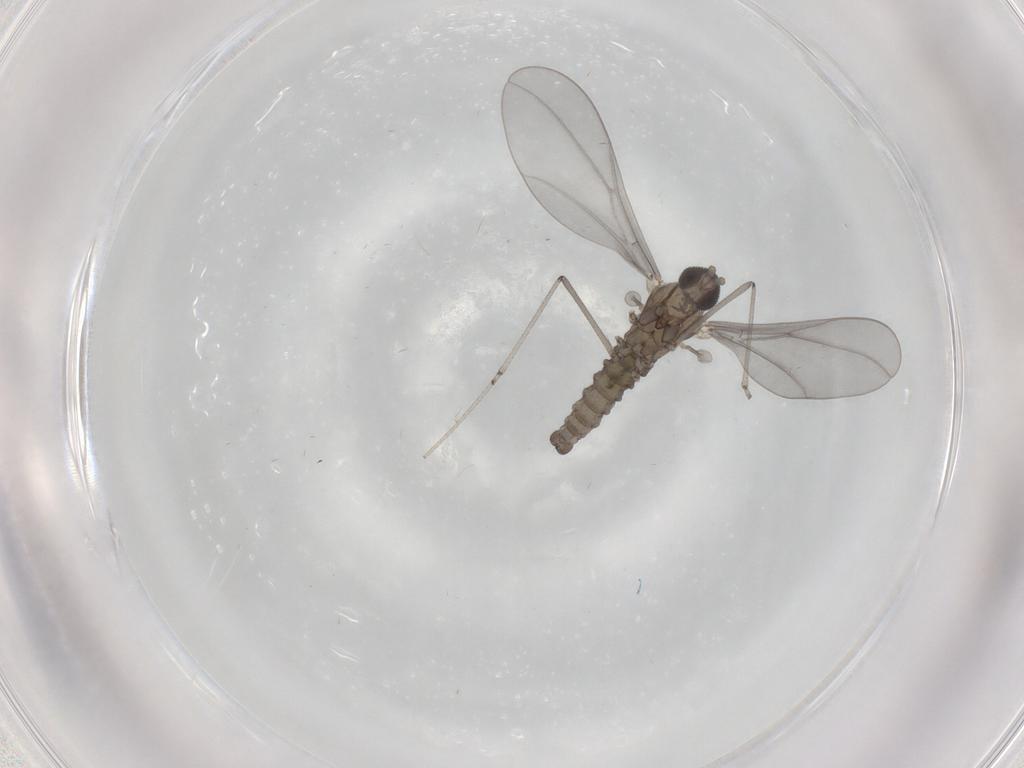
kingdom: Animalia
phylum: Arthropoda
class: Insecta
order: Diptera
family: Cecidomyiidae
